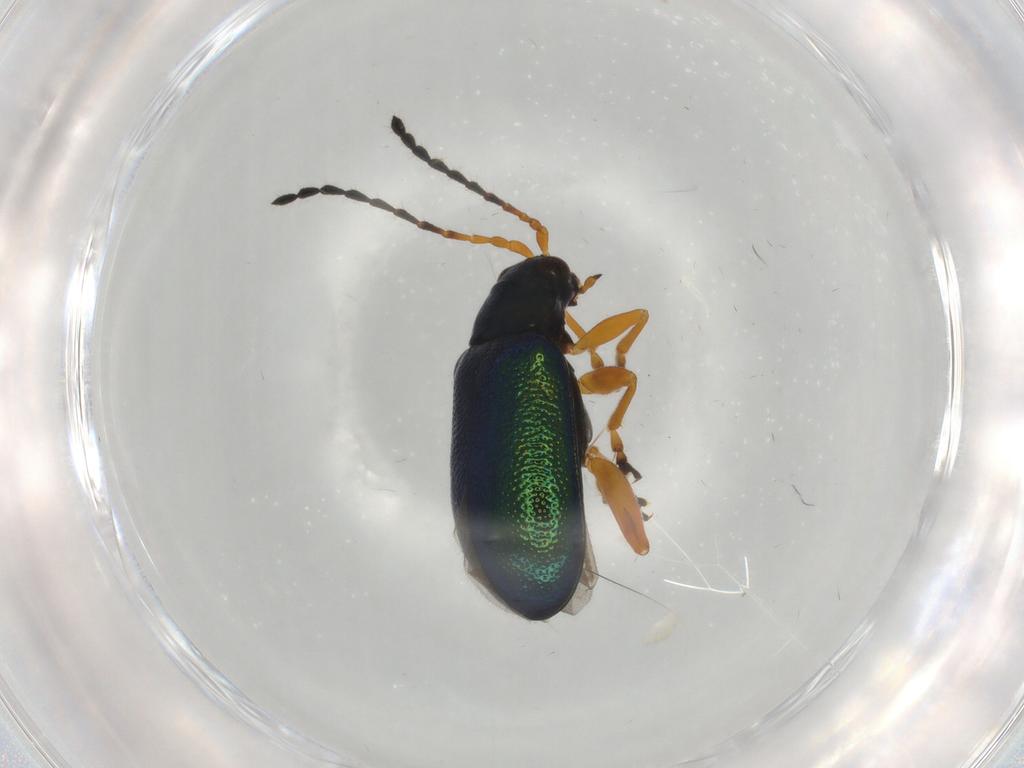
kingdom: Animalia
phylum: Arthropoda
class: Insecta
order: Coleoptera
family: Chrysomelidae
